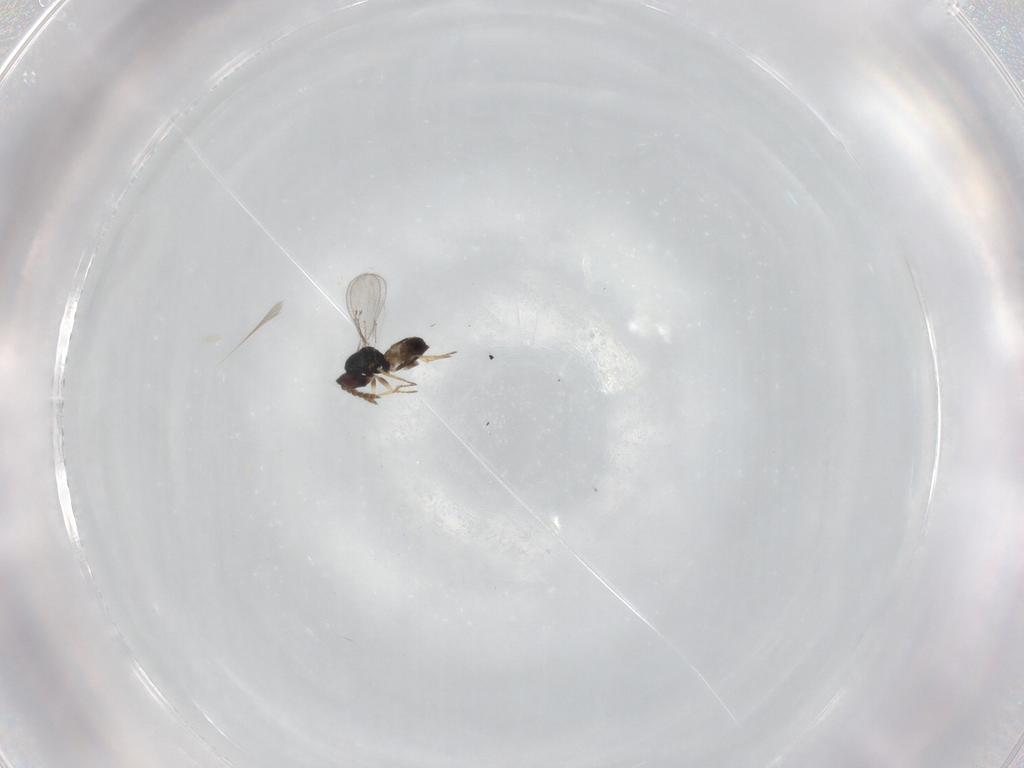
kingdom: Animalia
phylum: Arthropoda
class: Insecta
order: Hymenoptera
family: Eulophidae
